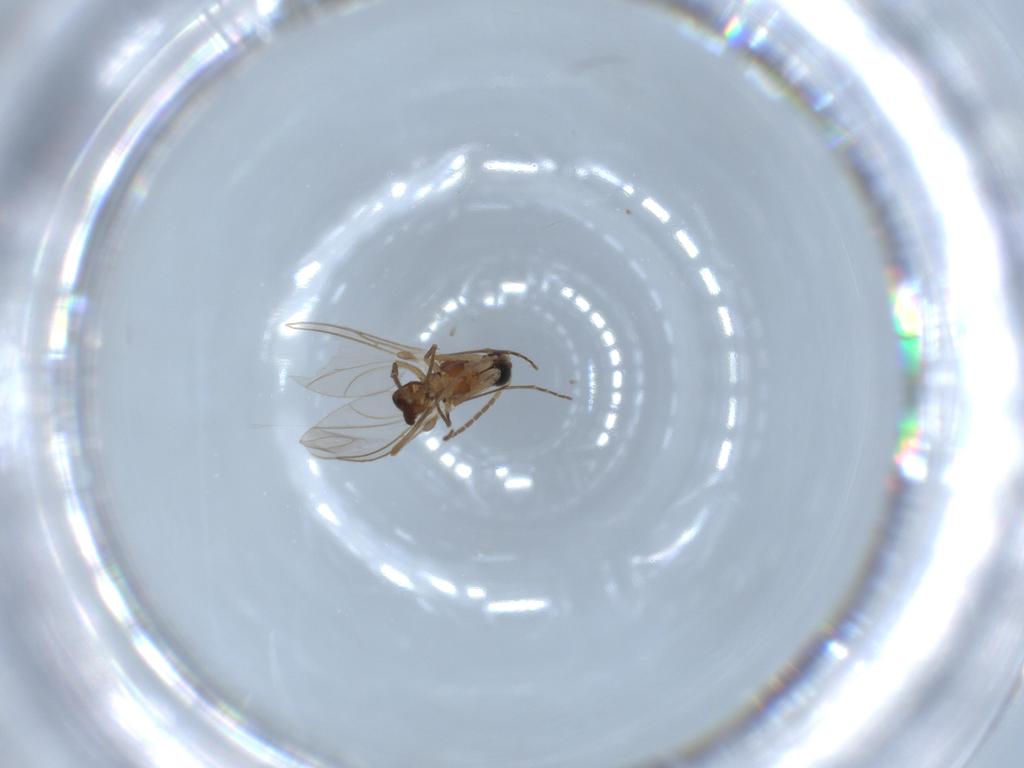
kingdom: Animalia
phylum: Arthropoda
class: Insecta
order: Diptera
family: Sciaridae
